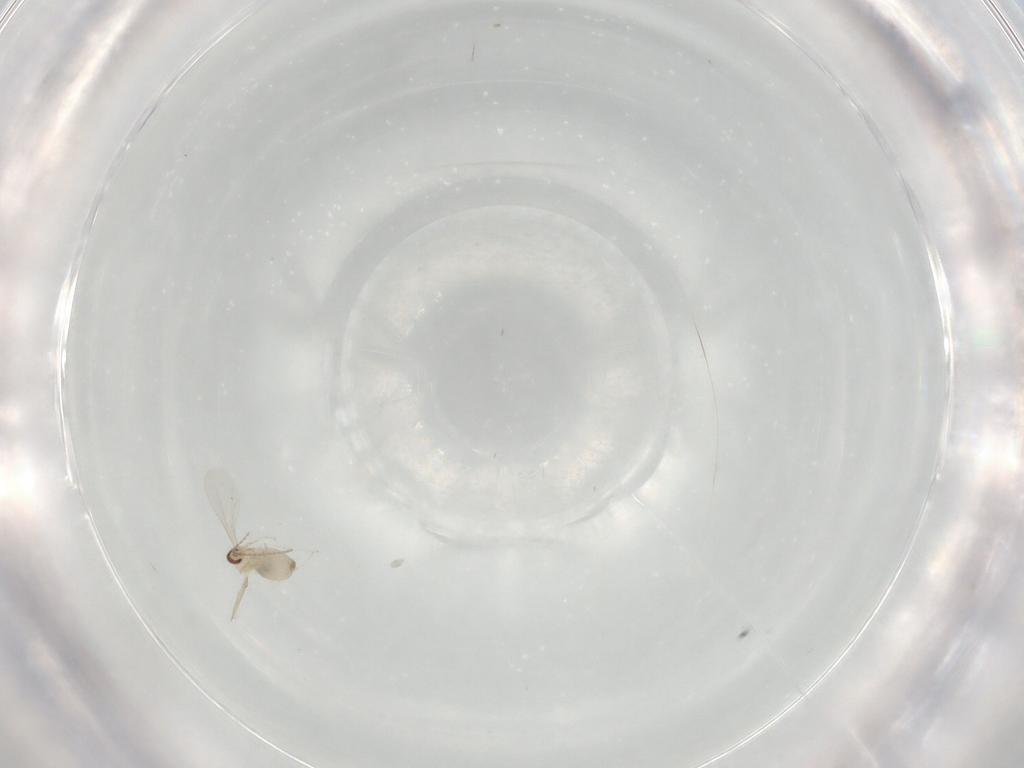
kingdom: Animalia
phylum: Arthropoda
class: Insecta
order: Diptera
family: Cecidomyiidae
